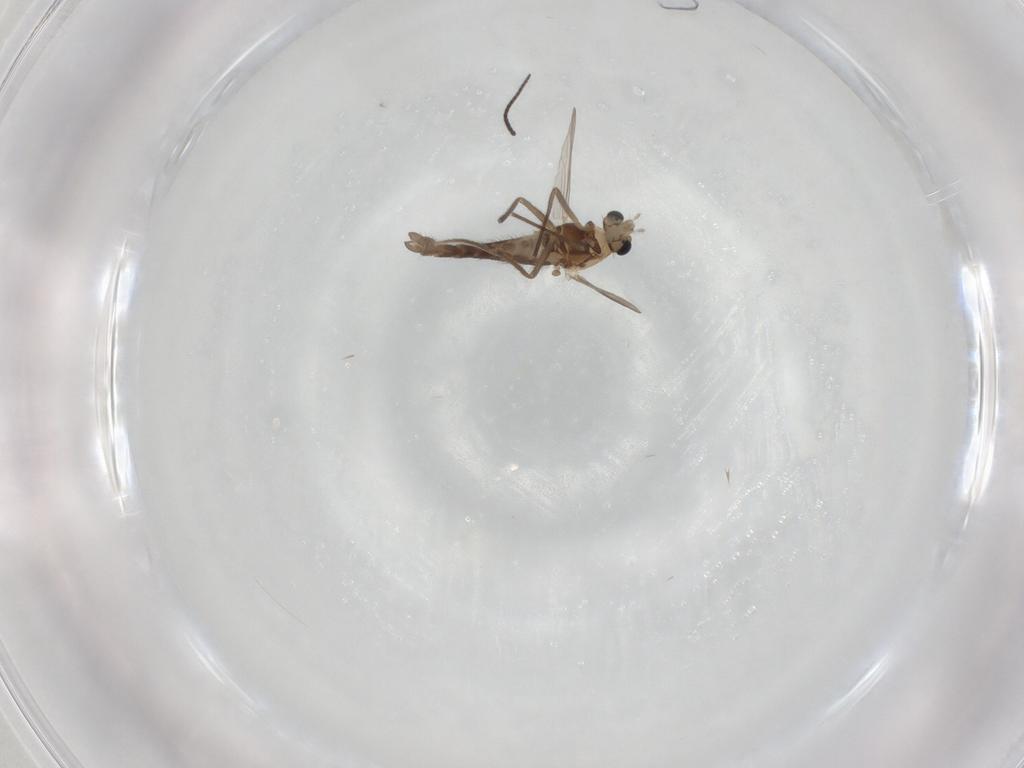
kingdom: Animalia
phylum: Arthropoda
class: Insecta
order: Diptera
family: Chironomidae
